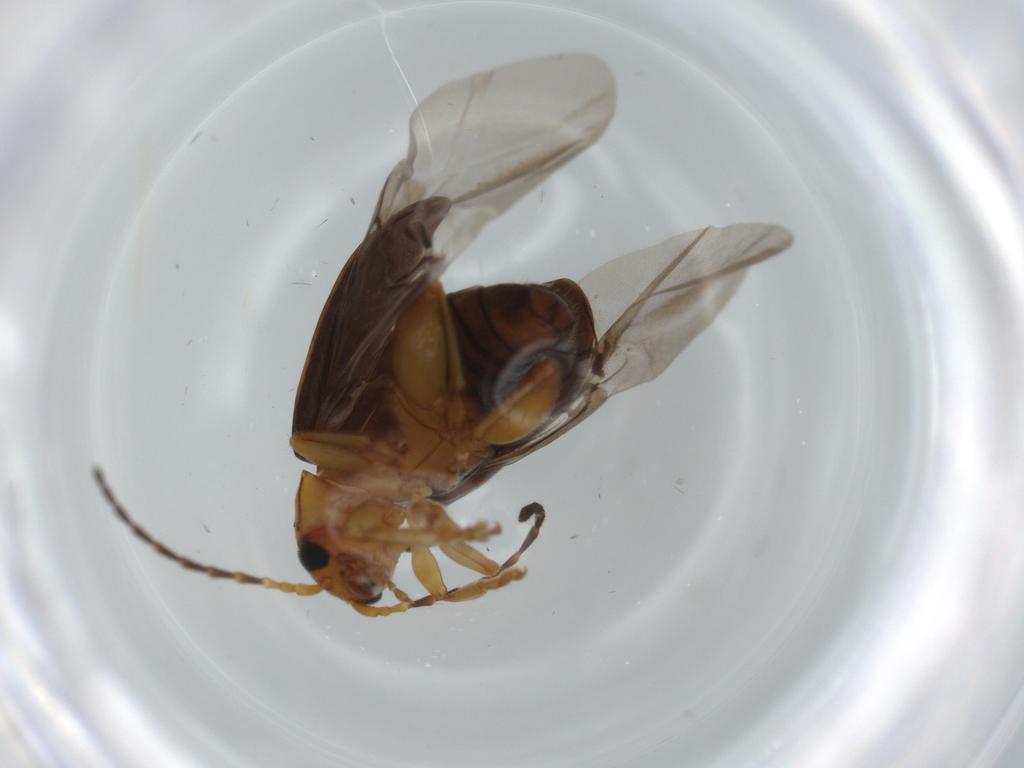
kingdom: Animalia
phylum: Arthropoda
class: Insecta
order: Coleoptera
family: Chrysomelidae
